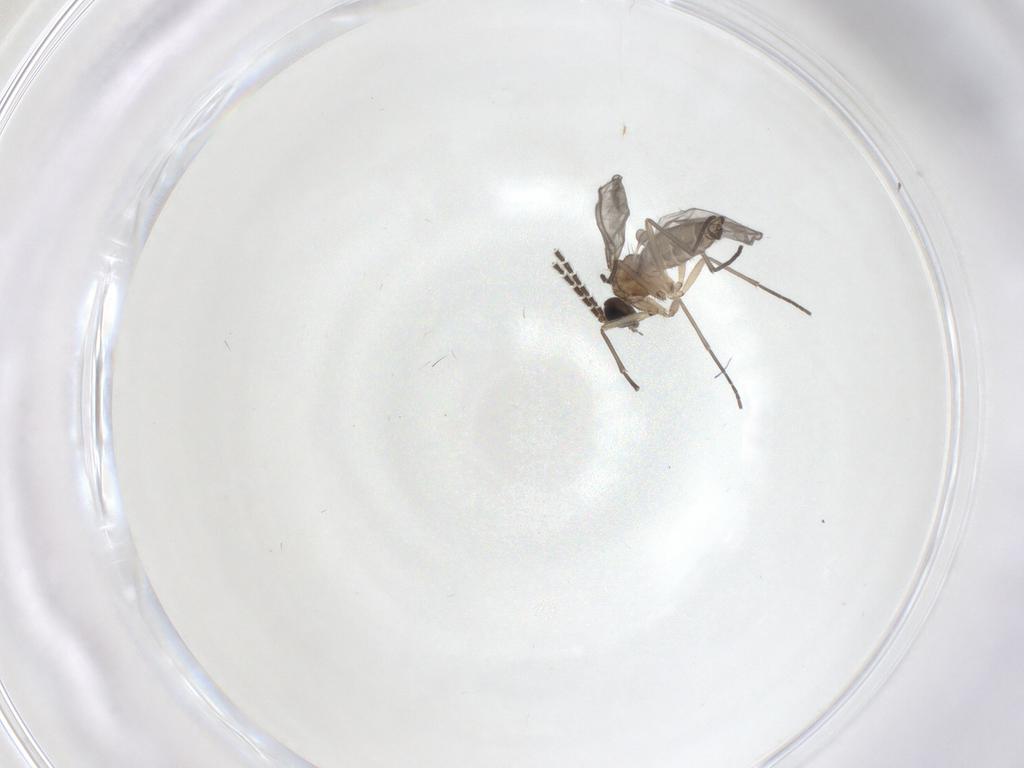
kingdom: Animalia
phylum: Arthropoda
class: Insecta
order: Diptera
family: Sciaridae
